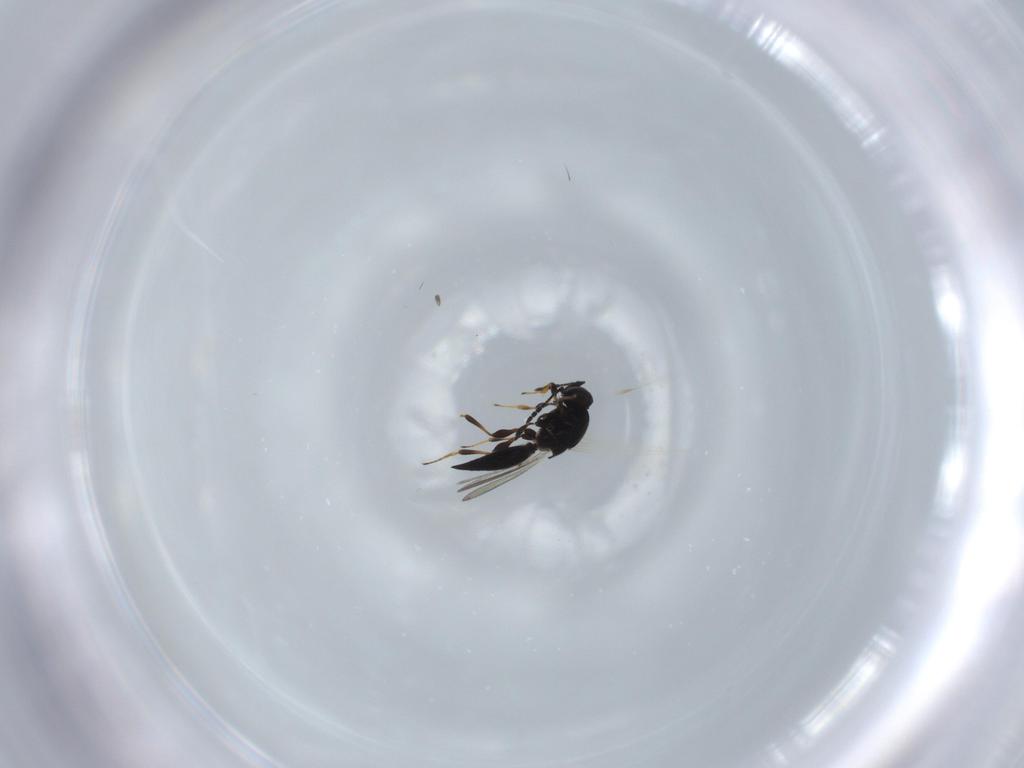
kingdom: Animalia
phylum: Arthropoda
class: Insecta
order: Hymenoptera
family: Platygastridae
